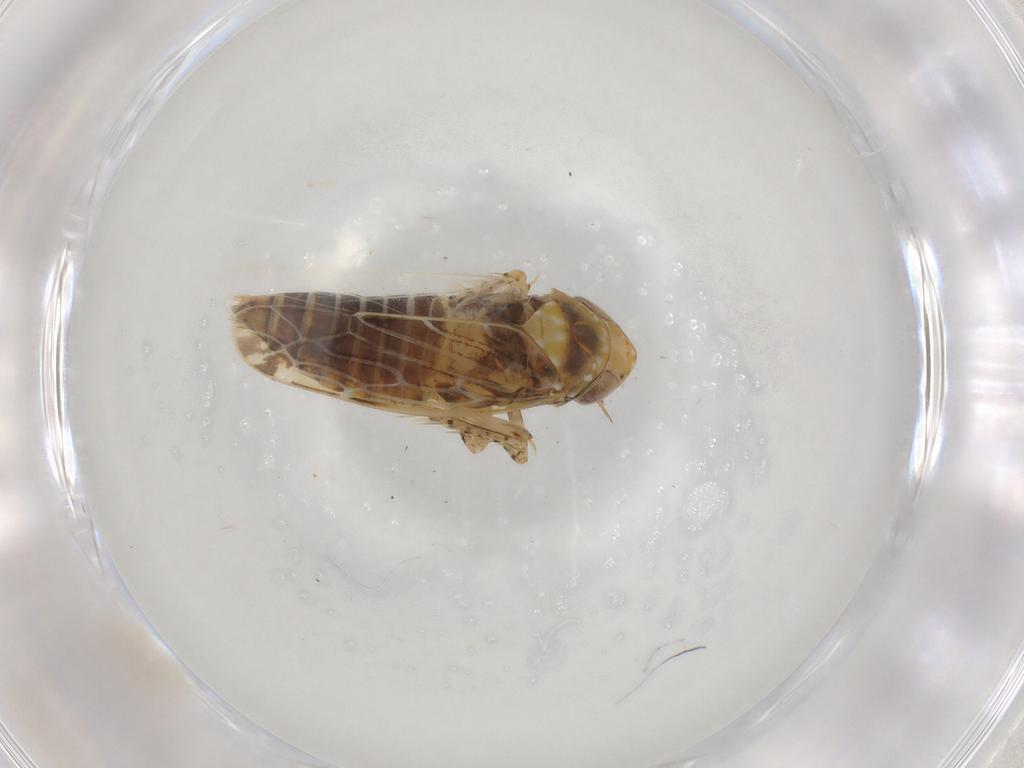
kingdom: Animalia
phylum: Arthropoda
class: Insecta
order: Hemiptera
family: Cicadellidae
